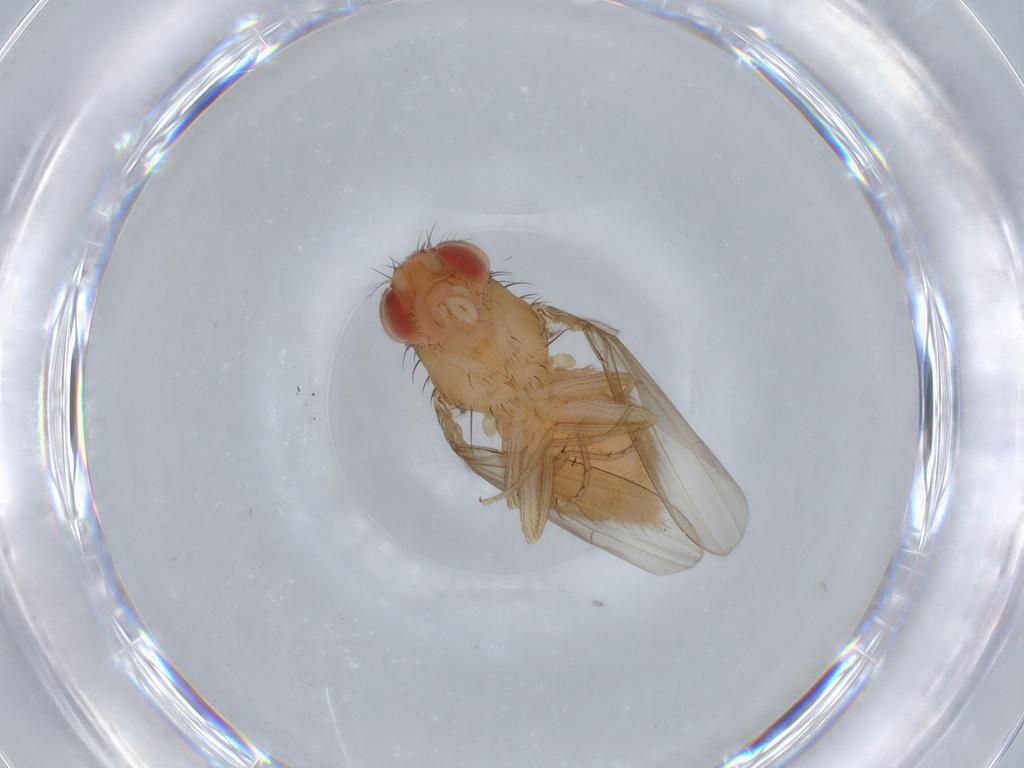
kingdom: Animalia
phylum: Arthropoda
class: Insecta
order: Diptera
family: Drosophilidae
